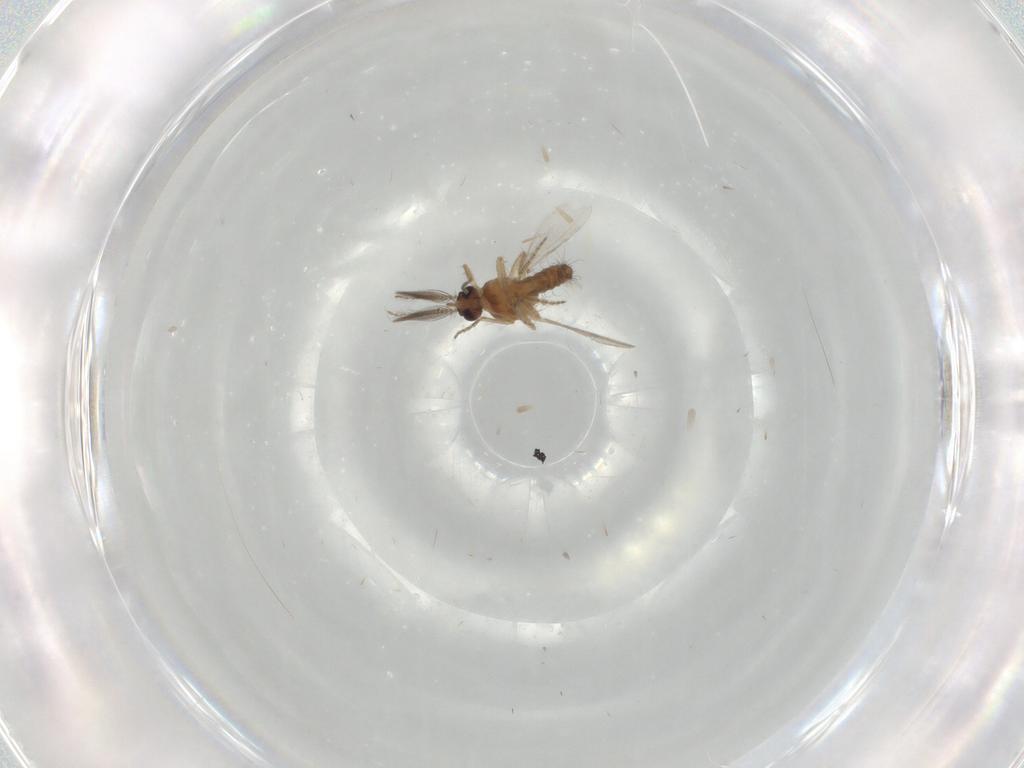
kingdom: Animalia
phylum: Arthropoda
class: Insecta
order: Diptera
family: Ceratopogonidae
